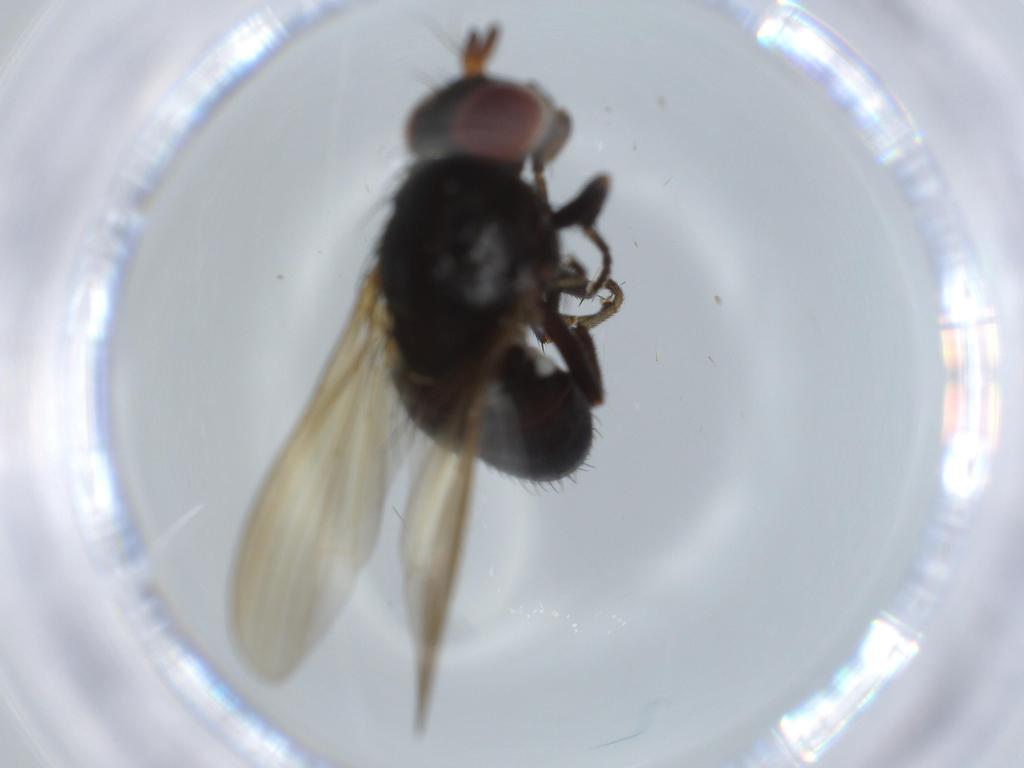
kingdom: Animalia
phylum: Arthropoda
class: Insecta
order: Diptera
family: Lauxaniidae
